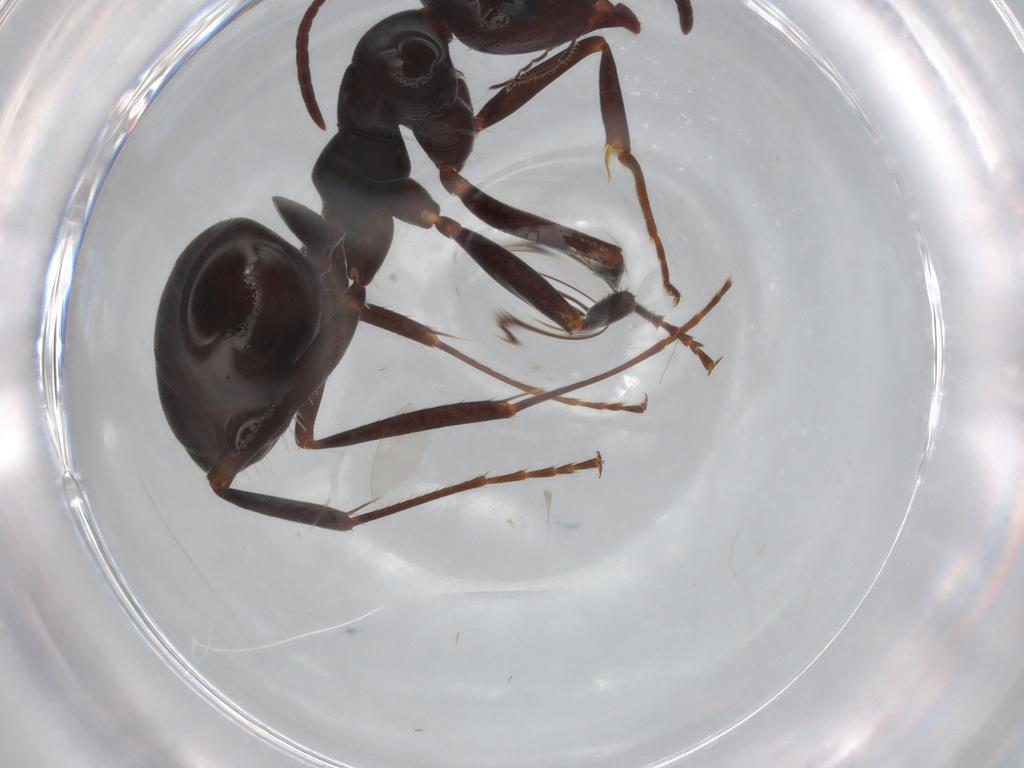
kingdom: Animalia
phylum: Arthropoda
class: Insecta
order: Hymenoptera
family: Formicidae
